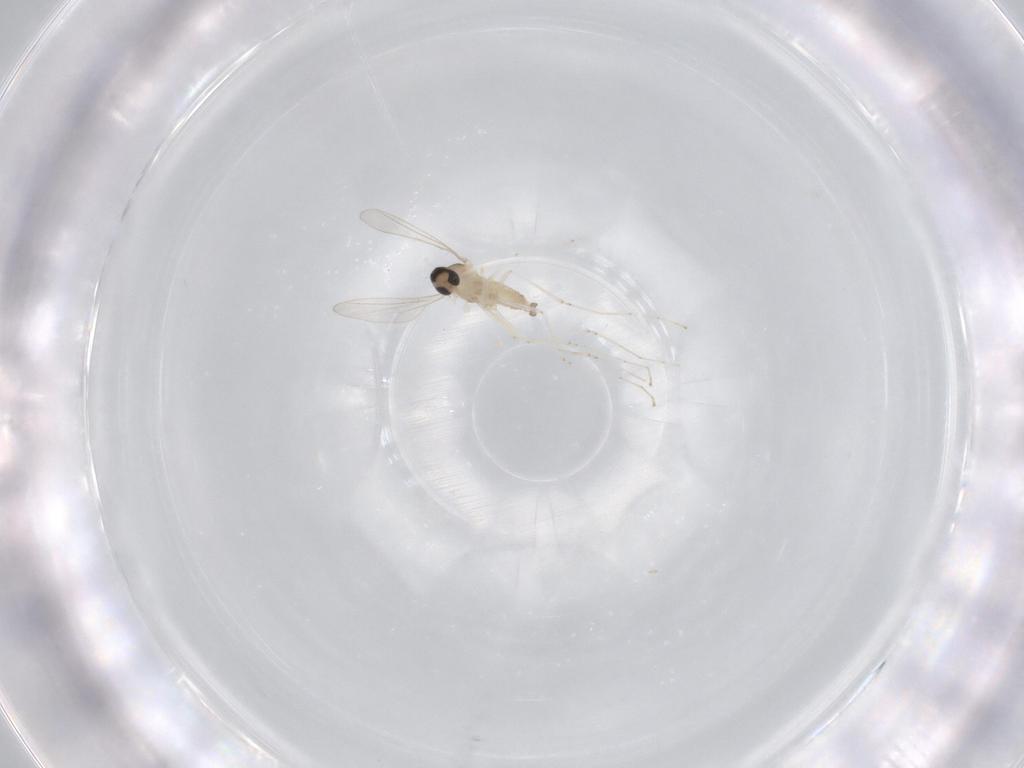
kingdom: Animalia
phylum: Arthropoda
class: Insecta
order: Diptera
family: Cecidomyiidae
